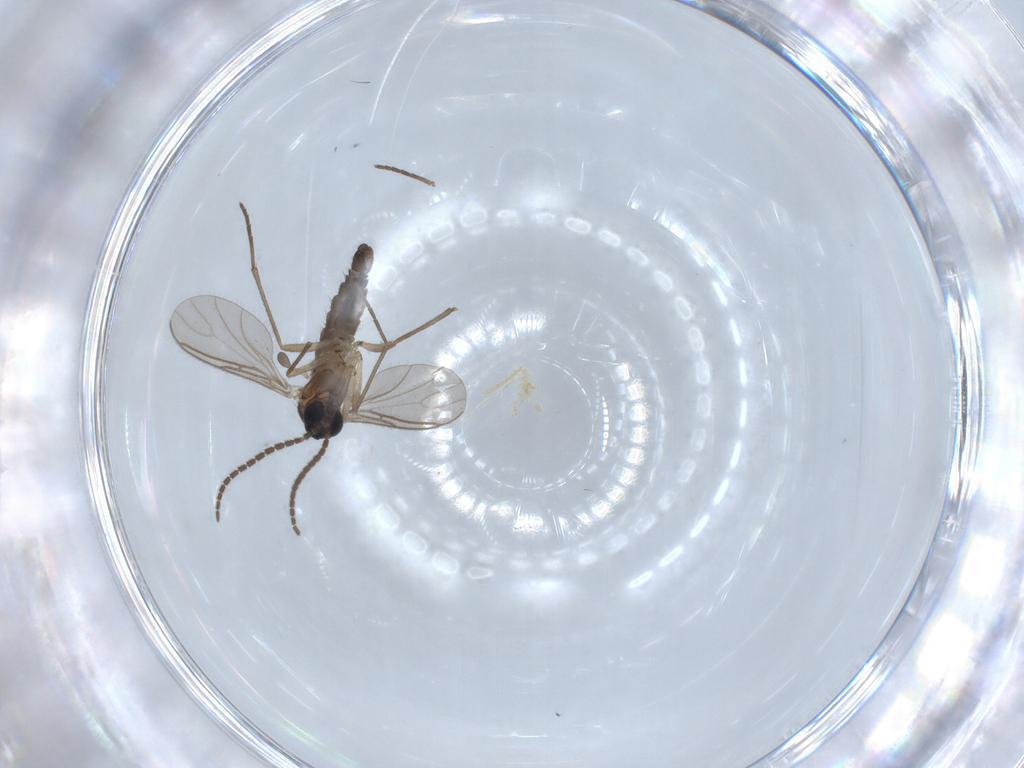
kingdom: Animalia
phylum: Arthropoda
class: Insecta
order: Diptera
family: Sciaridae
